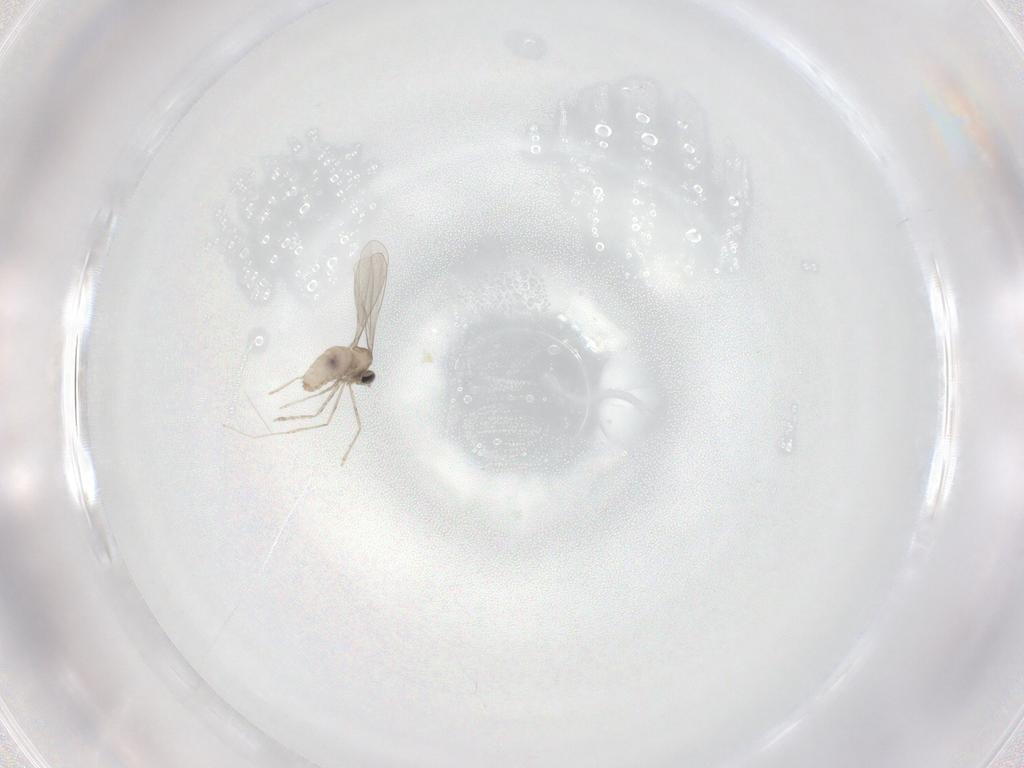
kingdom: Animalia
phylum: Arthropoda
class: Insecta
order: Diptera
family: Cecidomyiidae
